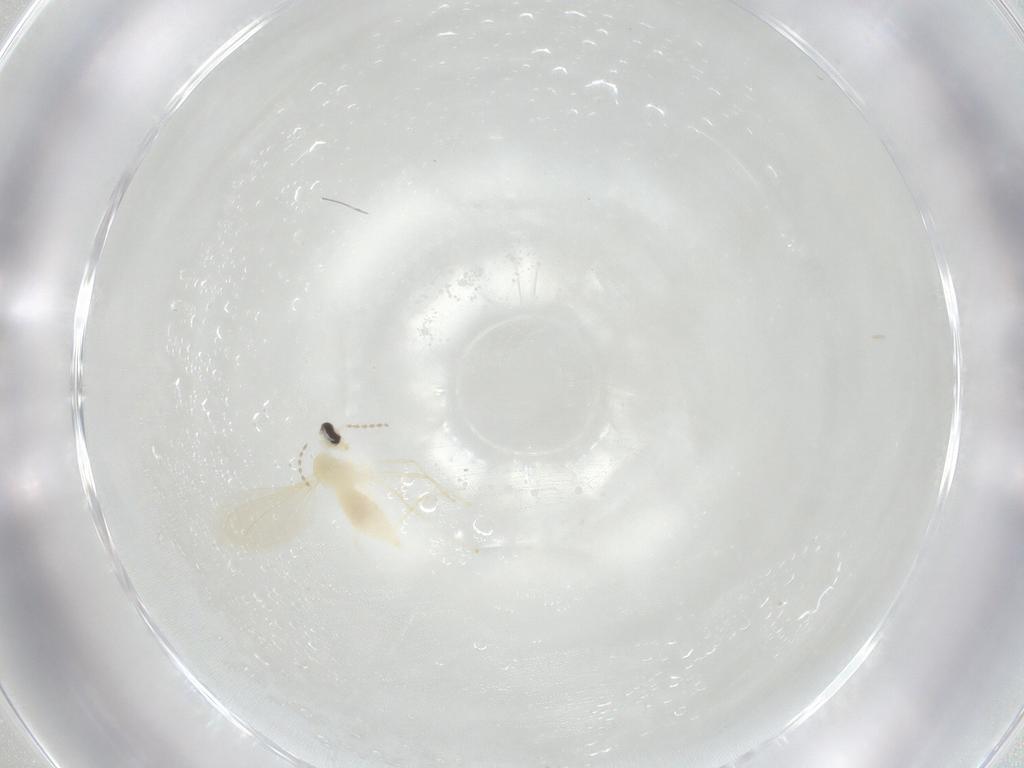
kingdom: Animalia
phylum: Arthropoda
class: Insecta
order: Diptera
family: Cecidomyiidae
